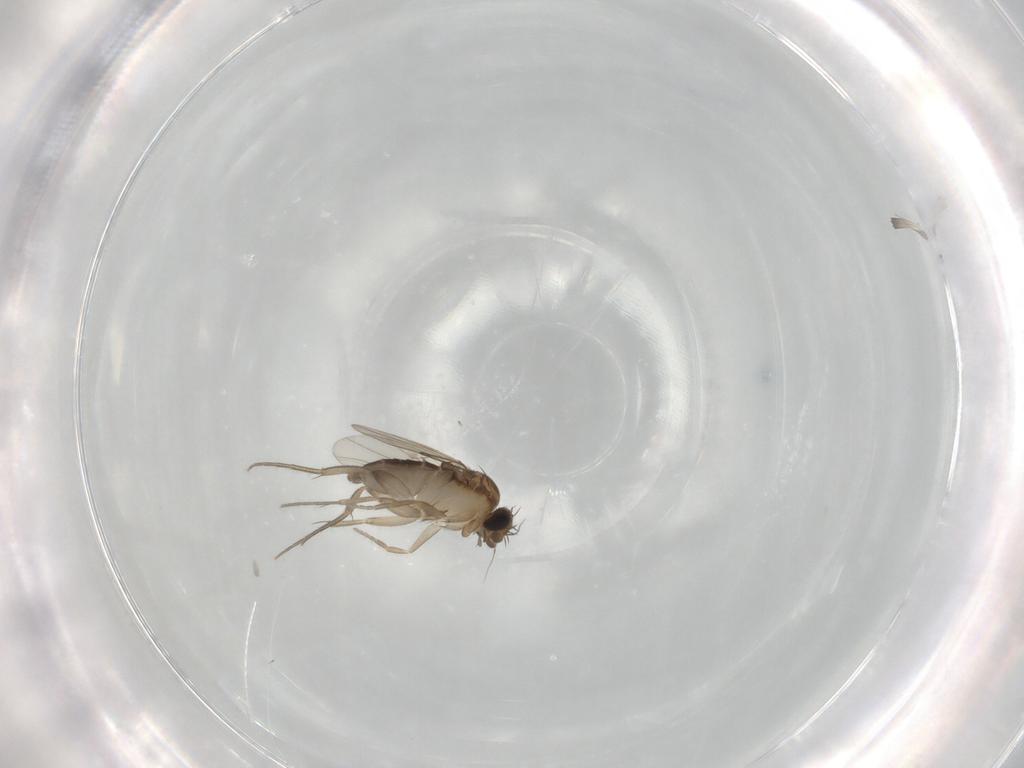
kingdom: Animalia
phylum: Arthropoda
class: Insecta
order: Diptera
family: Phoridae
